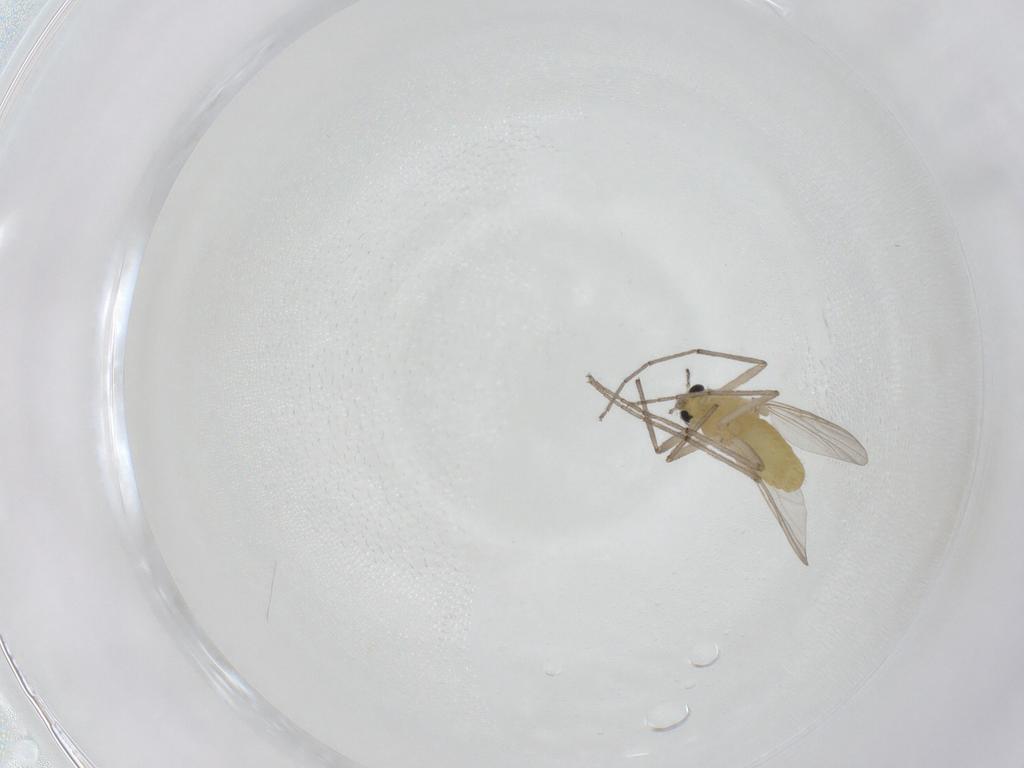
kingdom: Animalia
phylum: Arthropoda
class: Insecta
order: Diptera
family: Chironomidae
